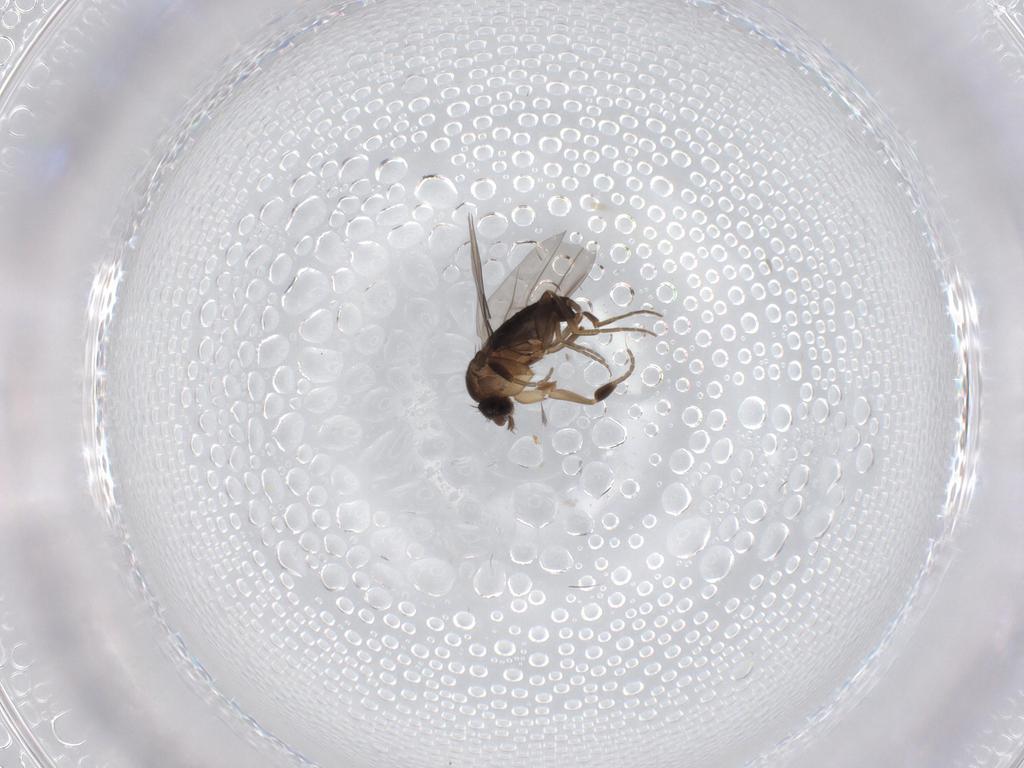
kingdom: Animalia
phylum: Arthropoda
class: Insecta
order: Diptera
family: Phoridae
